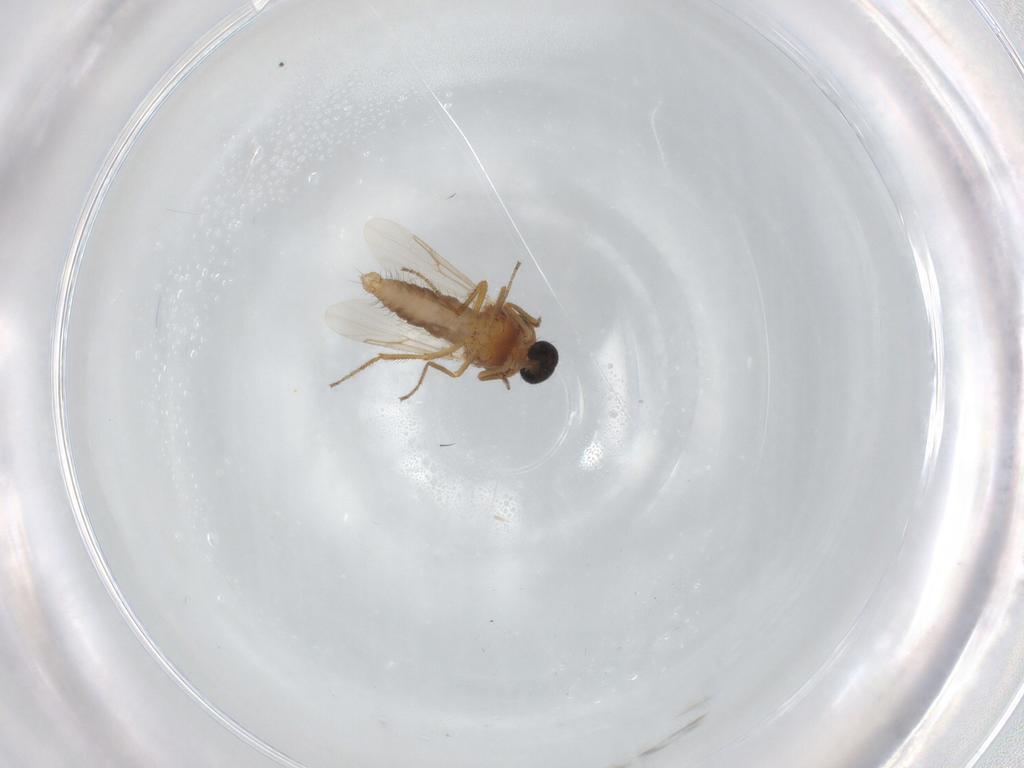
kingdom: Animalia
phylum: Arthropoda
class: Insecta
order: Diptera
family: Ceratopogonidae
